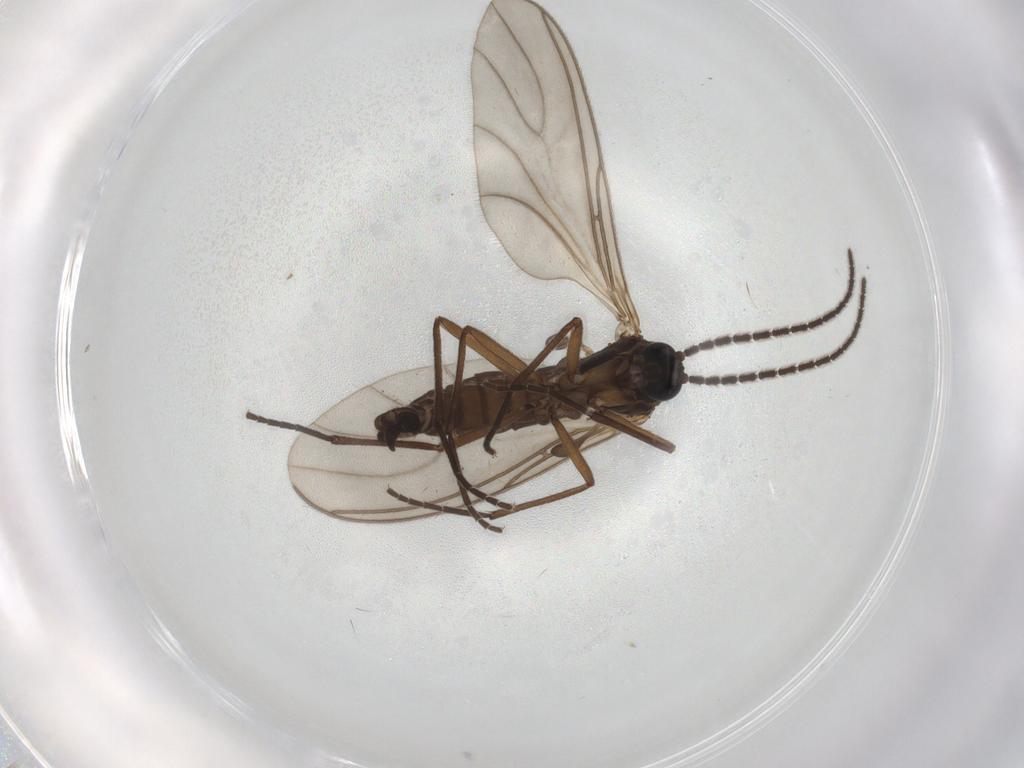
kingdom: Animalia
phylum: Arthropoda
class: Insecta
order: Diptera
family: Sciaridae
